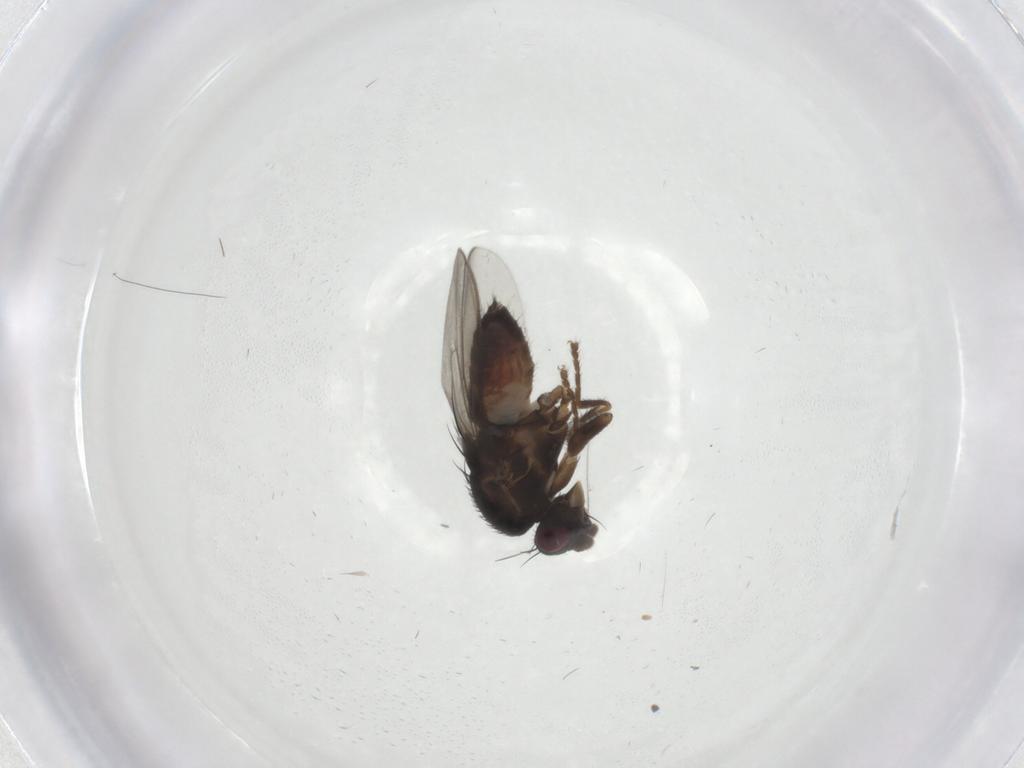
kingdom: Animalia
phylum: Arthropoda
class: Insecta
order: Diptera
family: Sphaeroceridae
